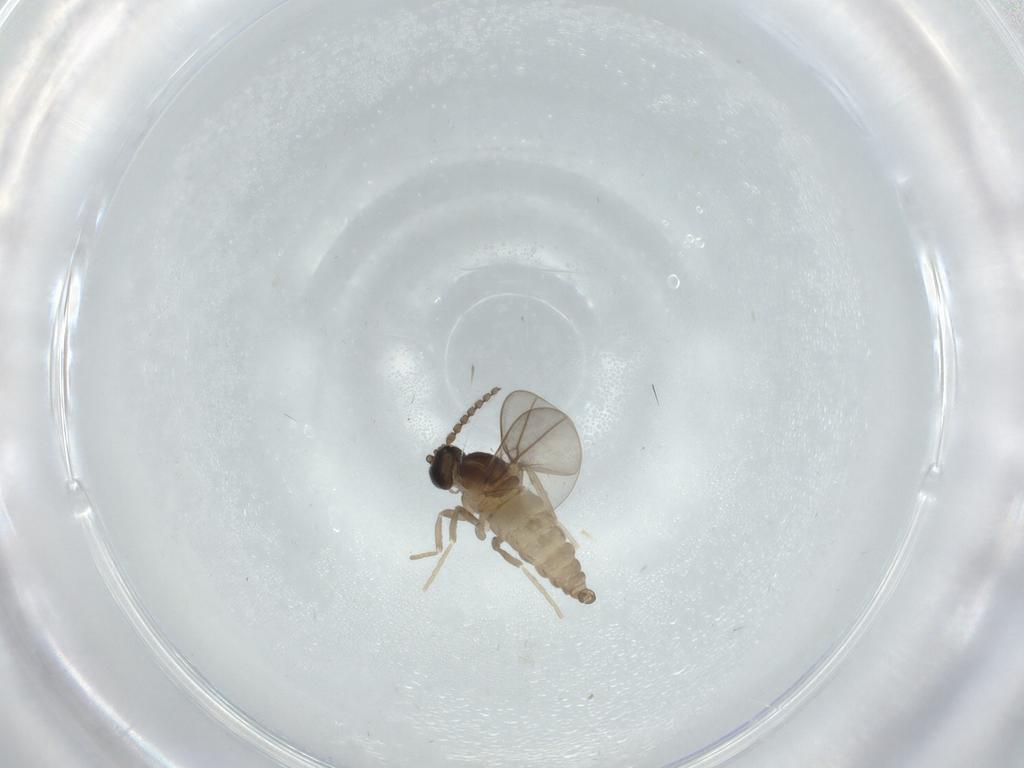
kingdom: Animalia
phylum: Arthropoda
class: Insecta
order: Diptera
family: Cecidomyiidae
